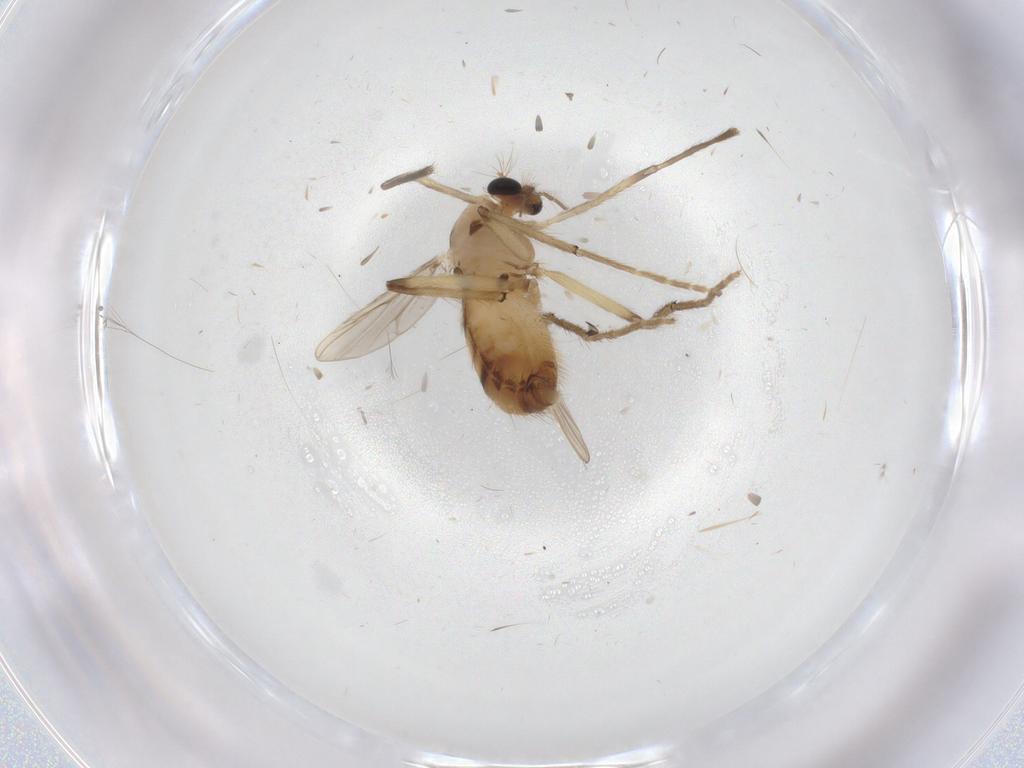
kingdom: Animalia
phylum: Arthropoda
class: Insecta
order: Diptera
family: Chironomidae
